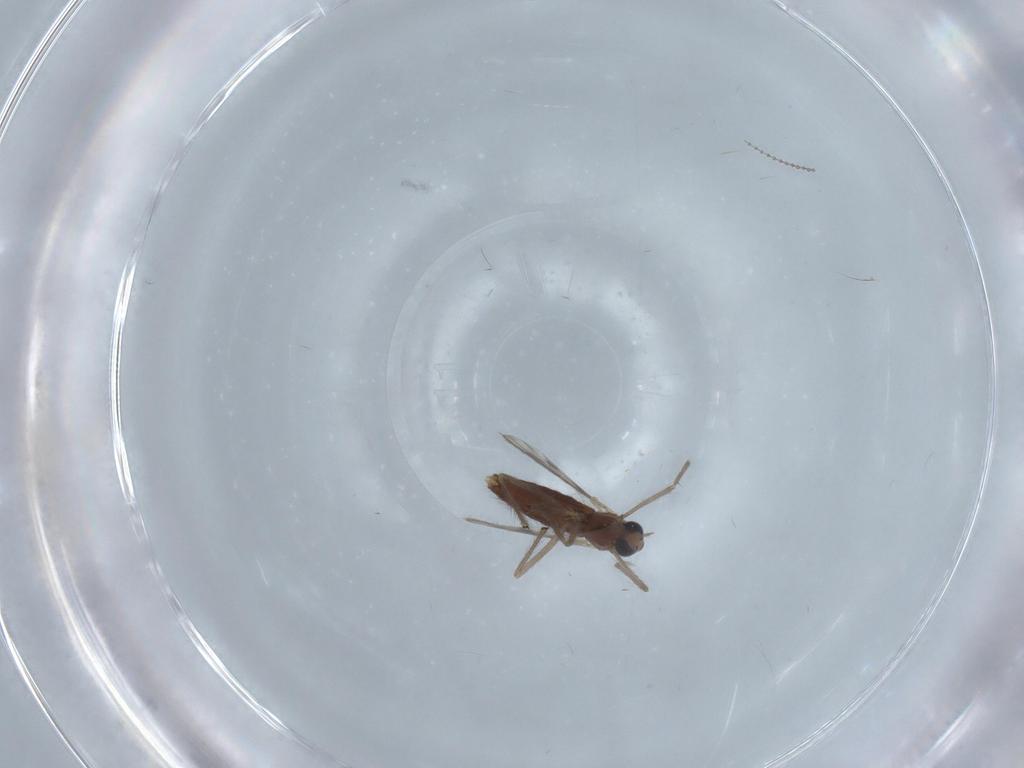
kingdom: Animalia
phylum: Arthropoda
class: Insecta
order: Diptera
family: Chironomidae
